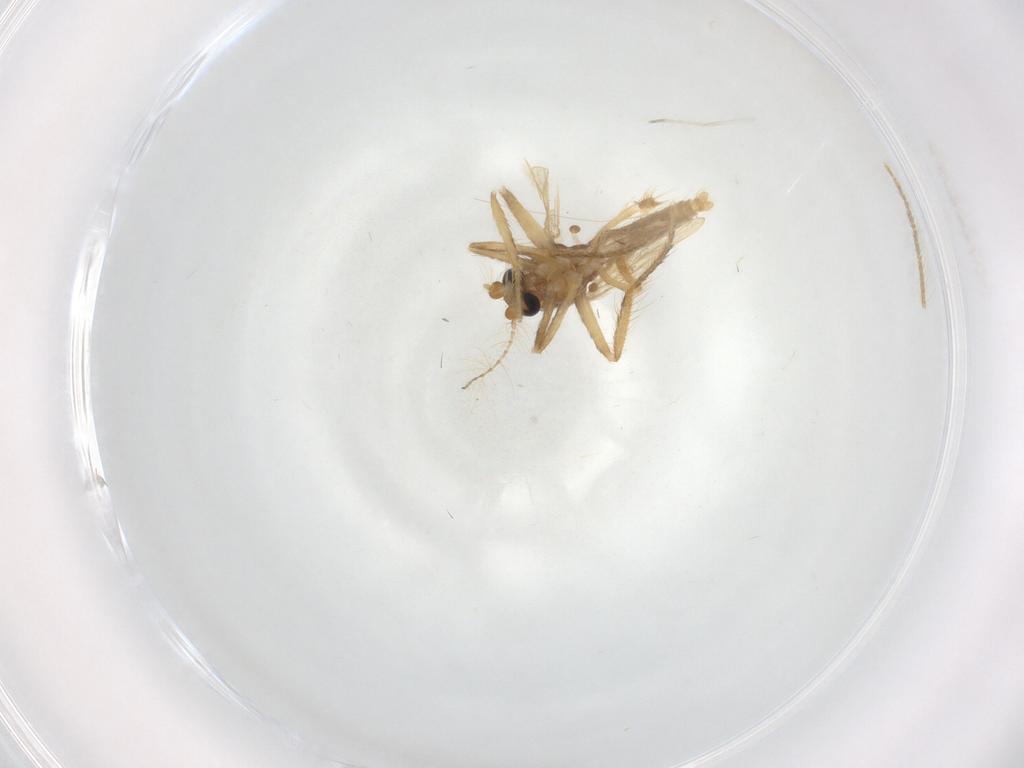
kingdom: Animalia
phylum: Arthropoda
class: Insecta
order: Diptera
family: Corethrellidae
